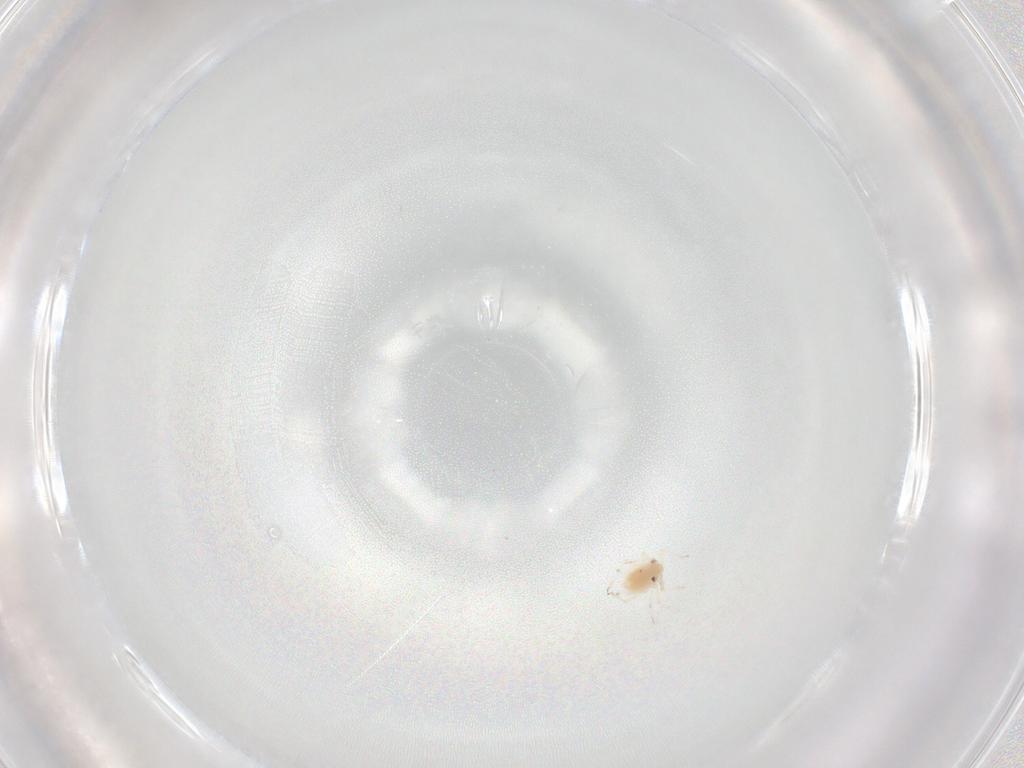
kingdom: Animalia
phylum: Arthropoda
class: Insecta
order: Hemiptera
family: Aphididae
